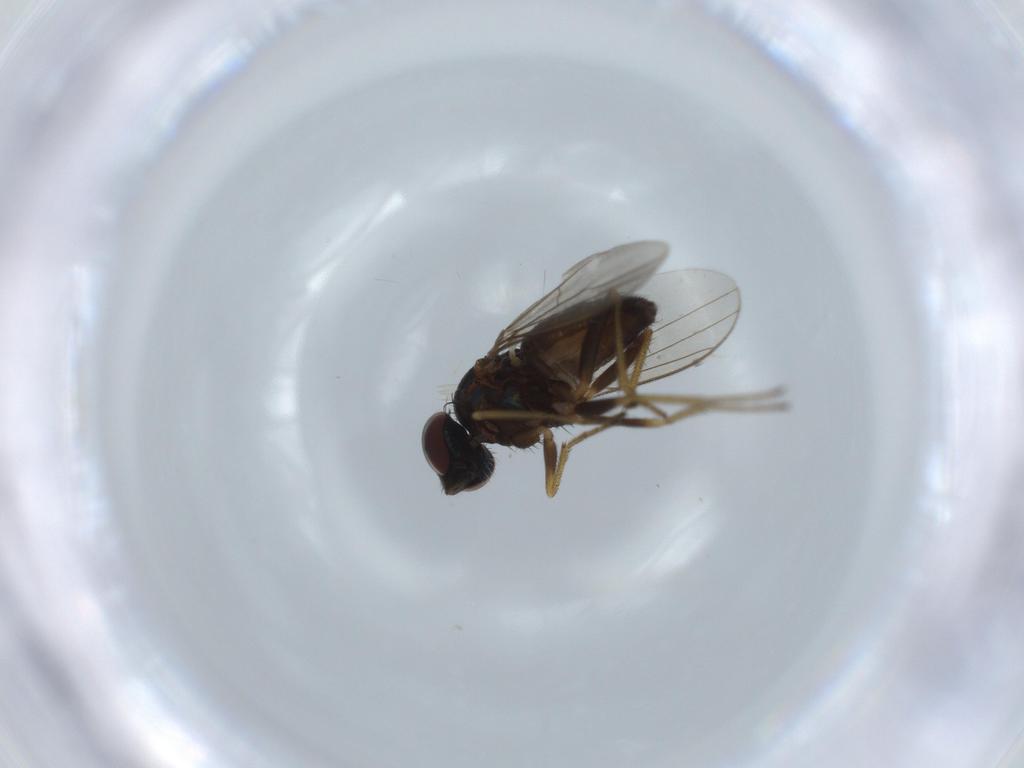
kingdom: Animalia
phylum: Arthropoda
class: Insecta
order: Diptera
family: Dolichopodidae
